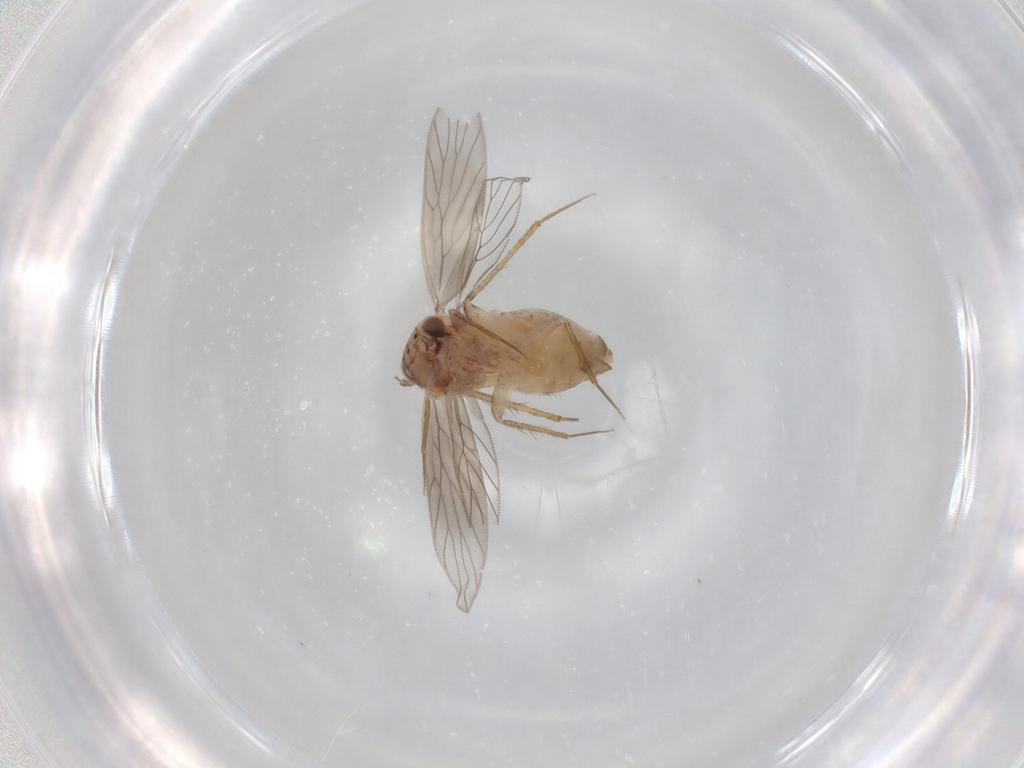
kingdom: Animalia
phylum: Arthropoda
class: Insecta
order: Psocodea
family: Lepidopsocidae
